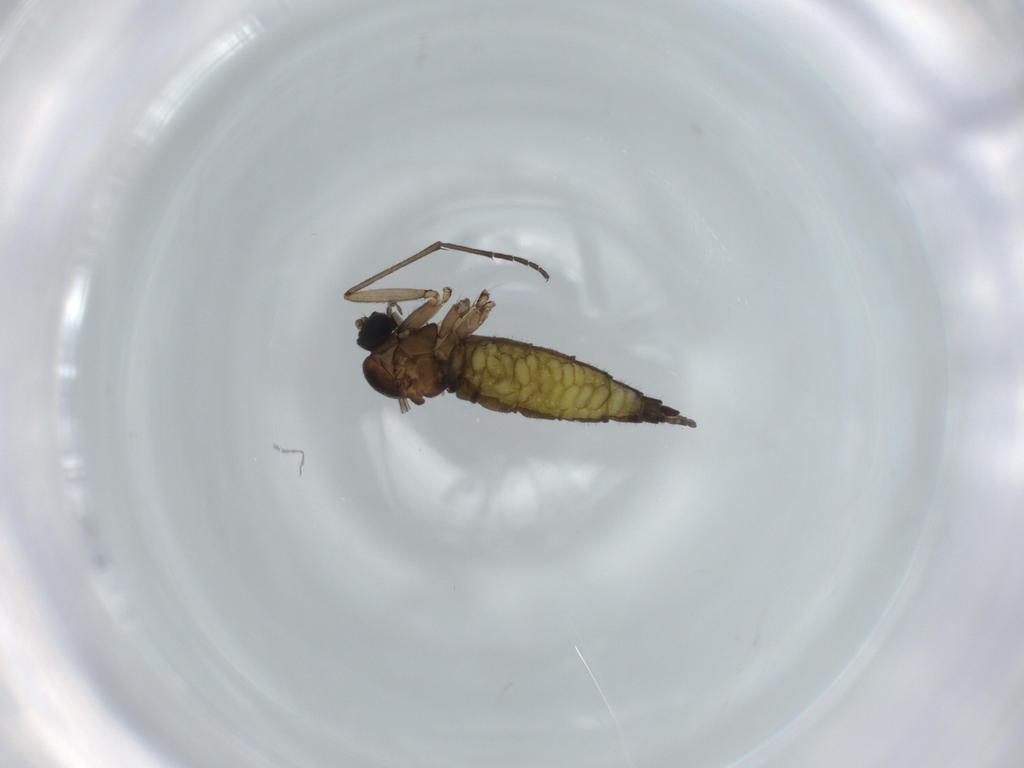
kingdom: Animalia
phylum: Arthropoda
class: Insecta
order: Diptera
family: Sciaridae
